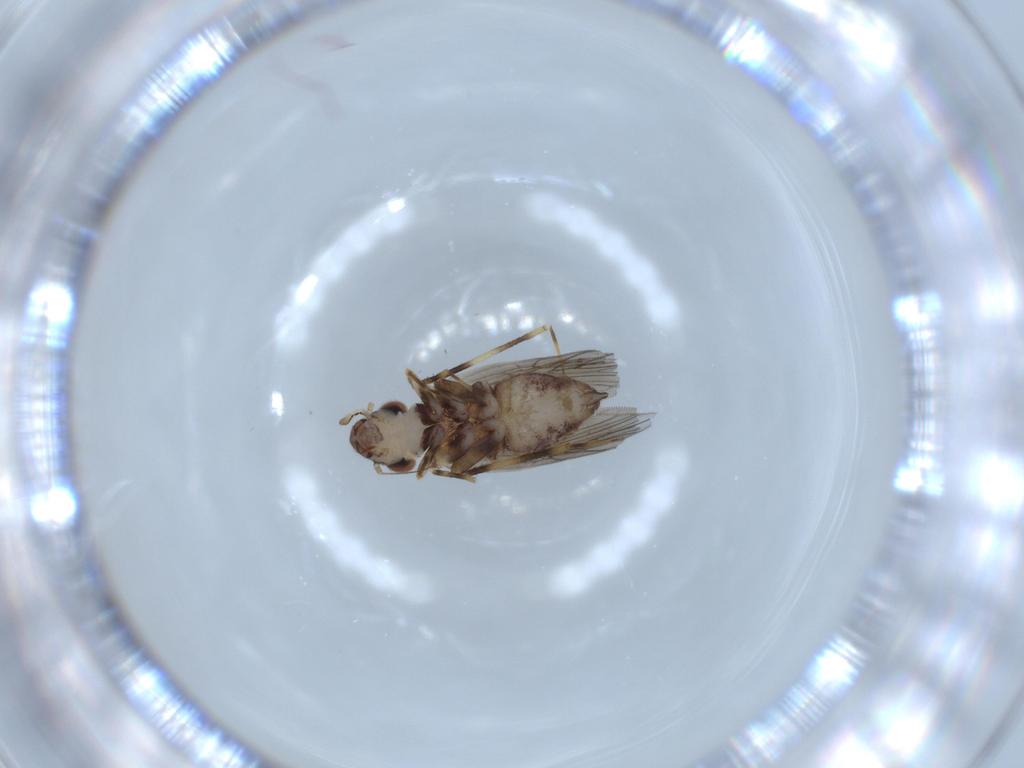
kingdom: Animalia
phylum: Arthropoda
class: Insecta
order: Psocodea
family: Lepidopsocidae
